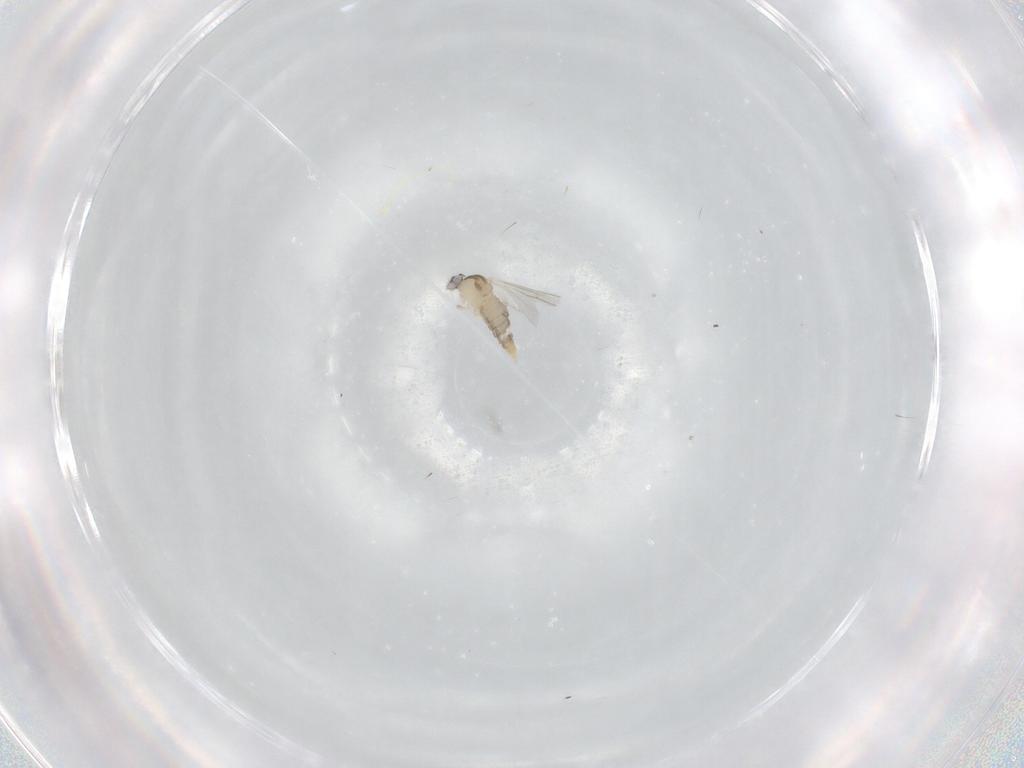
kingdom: Animalia
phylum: Arthropoda
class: Insecta
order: Diptera
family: Cecidomyiidae
